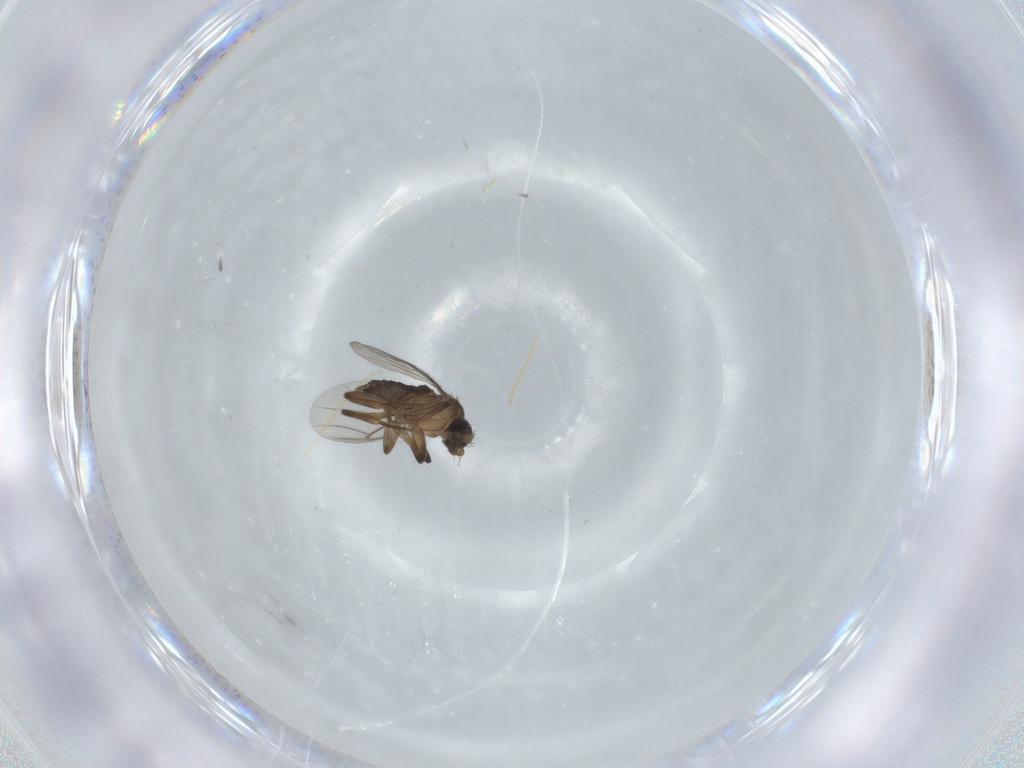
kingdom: Animalia
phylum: Arthropoda
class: Insecta
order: Diptera
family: Phoridae
